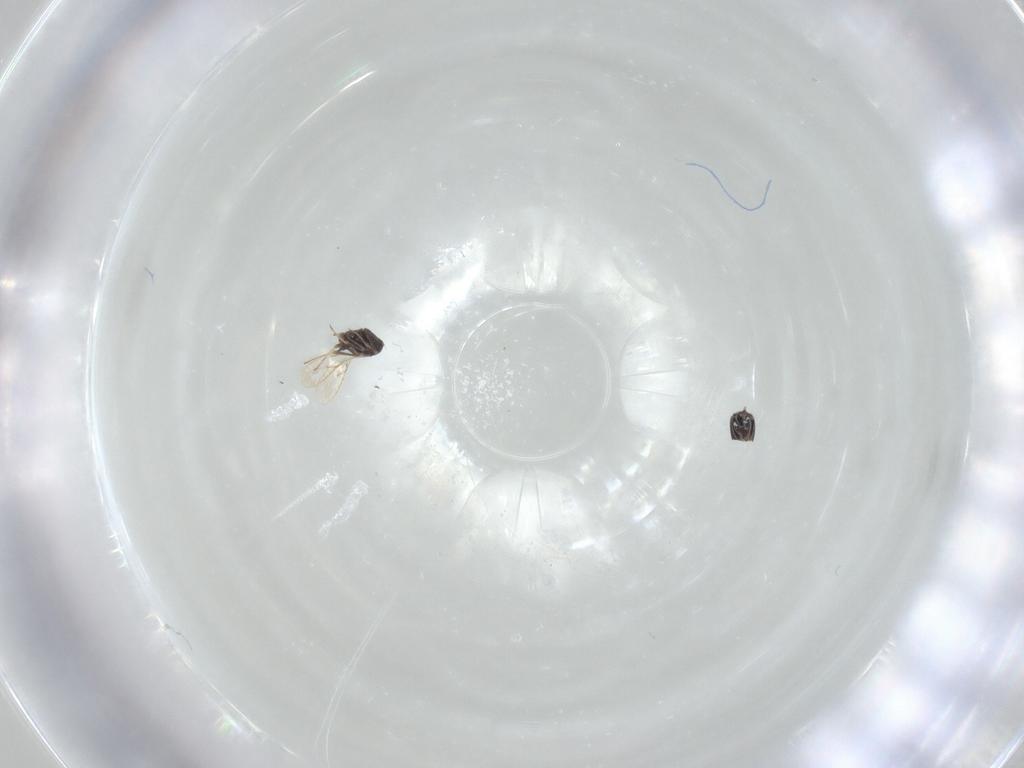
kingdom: Animalia
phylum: Arthropoda
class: Insecta
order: Hymenoptera
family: Scelionidae
